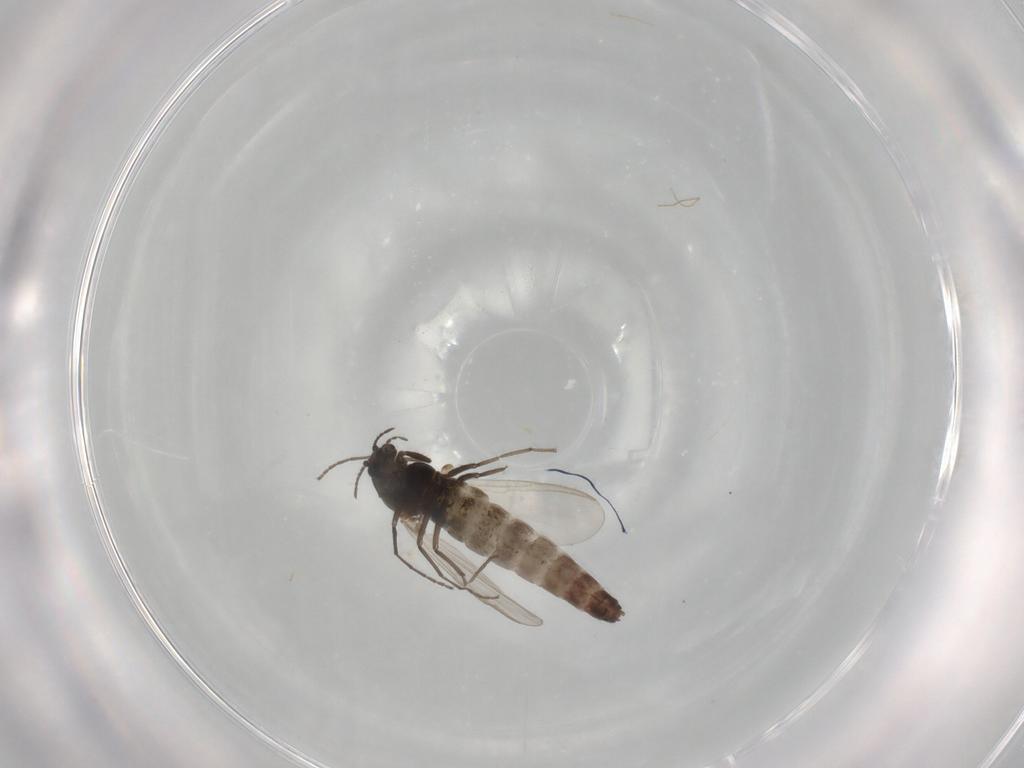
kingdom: Animalia
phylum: Arthropoda
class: Insecta
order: Diptera
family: Chironomidae
